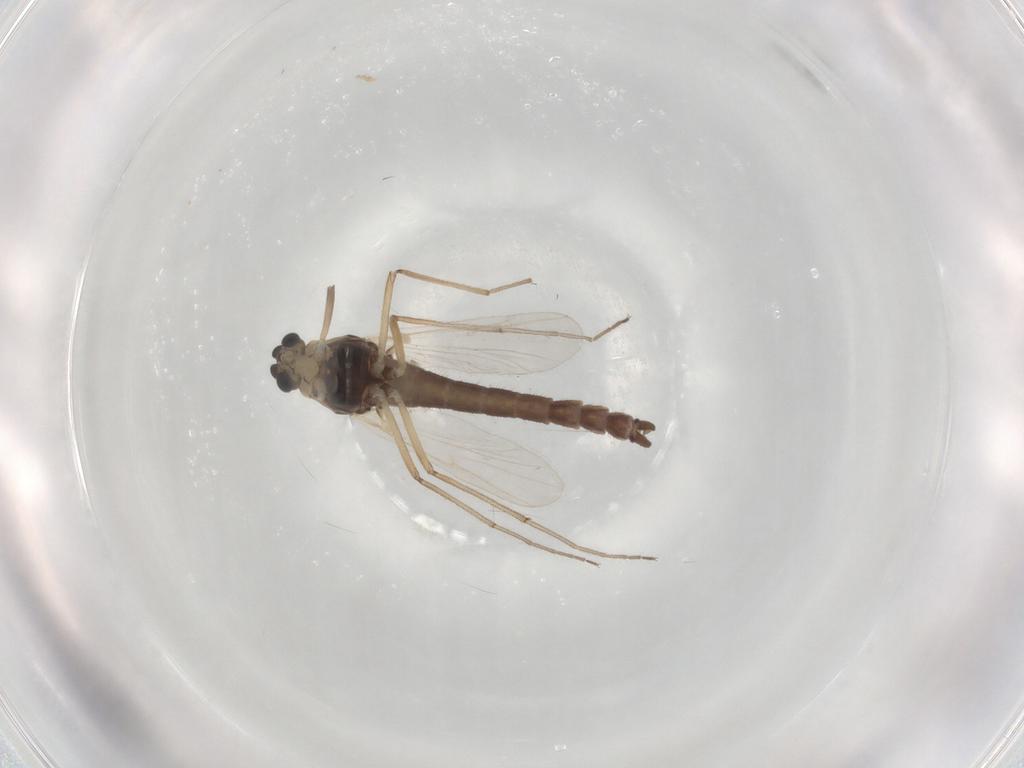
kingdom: Animalia
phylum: Arthropoda
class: Insecta
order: Diptera
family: Chironomidae
